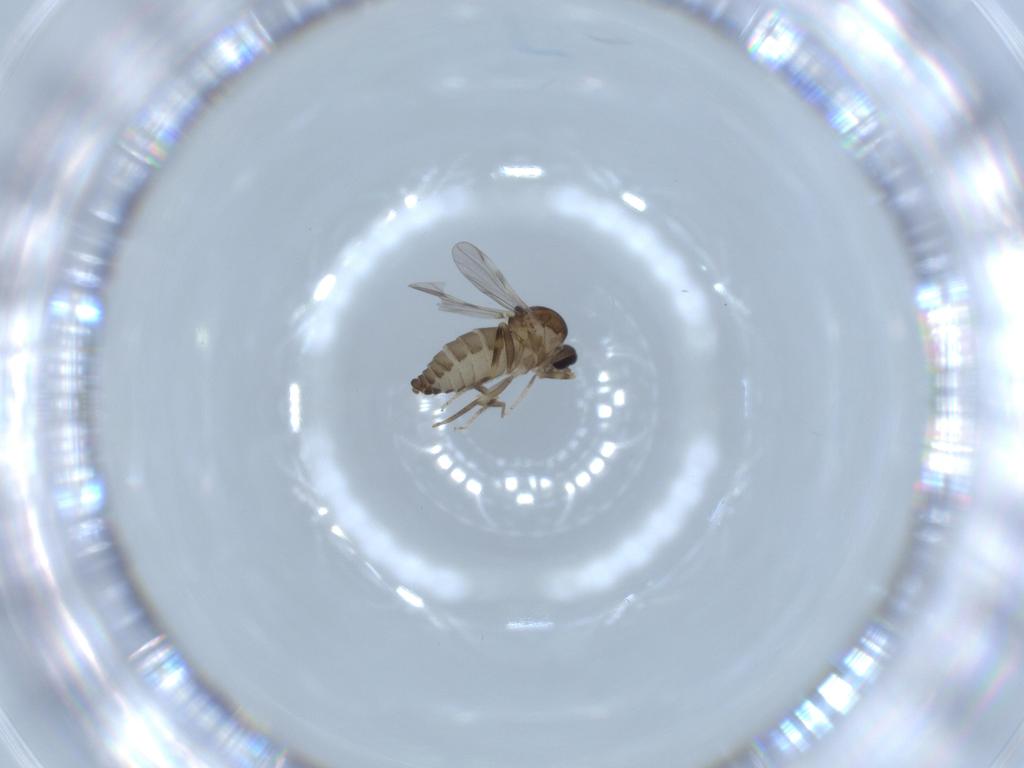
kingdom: Animalia
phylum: Arthropoda
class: Insecta
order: Diptera
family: Ceratopogonidae
